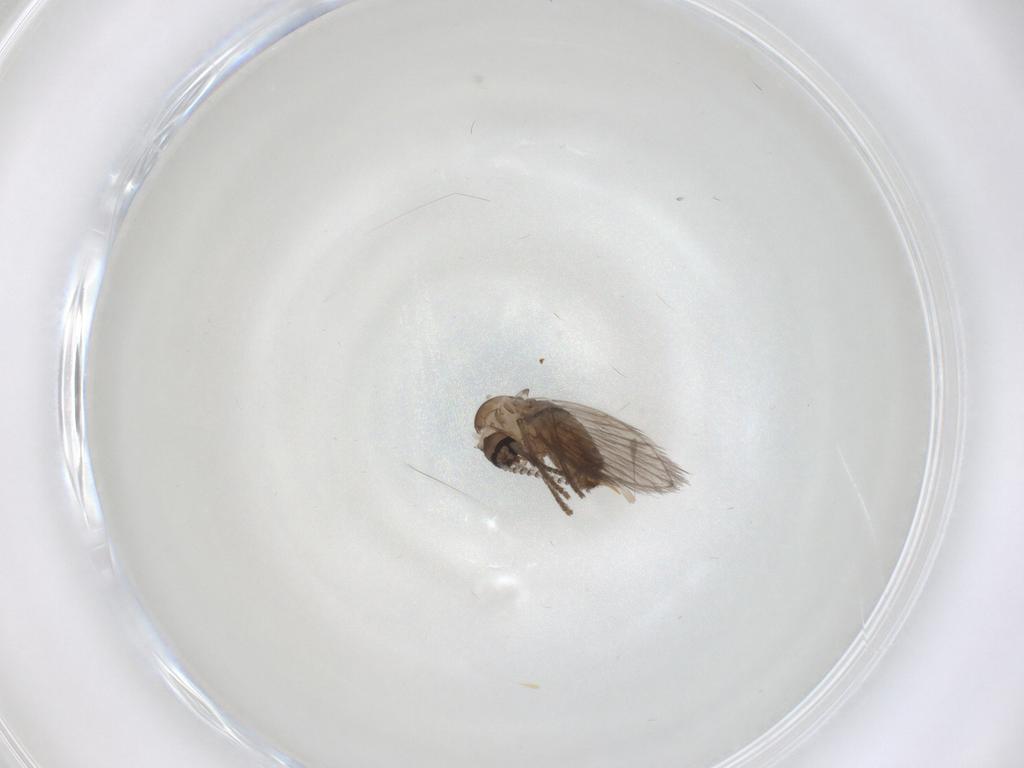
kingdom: Animalia
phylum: Arthropoda
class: Insecta
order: Diptera
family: Psychodidae
